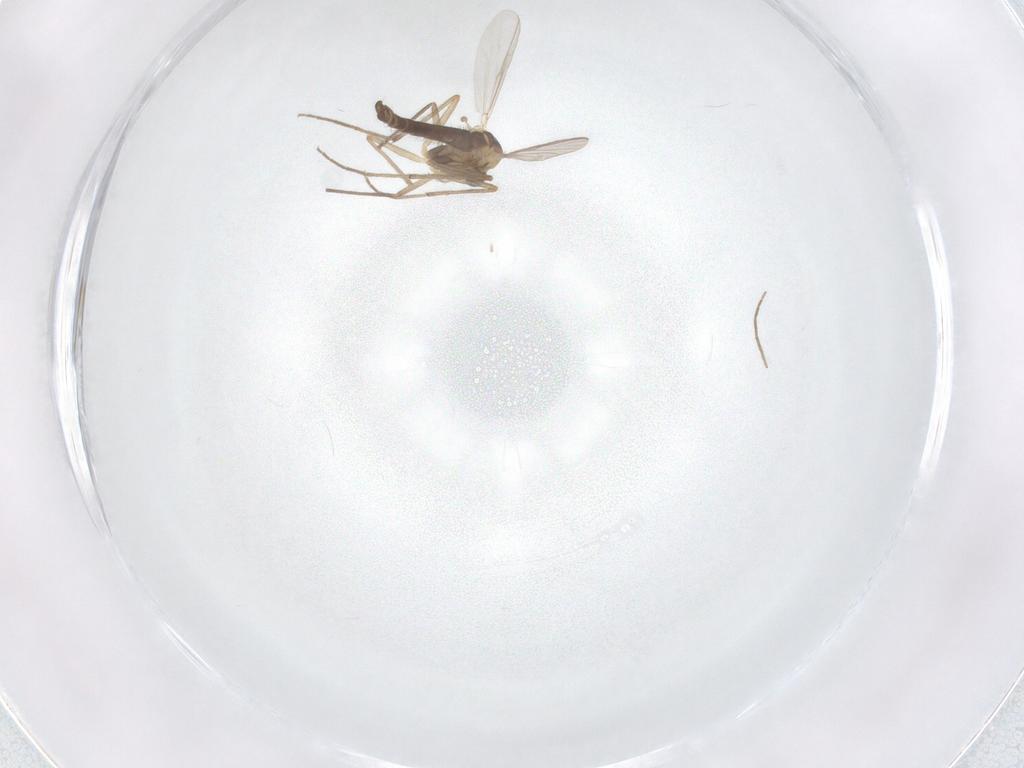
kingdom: Animalia
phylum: Arthropoda
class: Insecta
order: Diptera
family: Chironomidae
